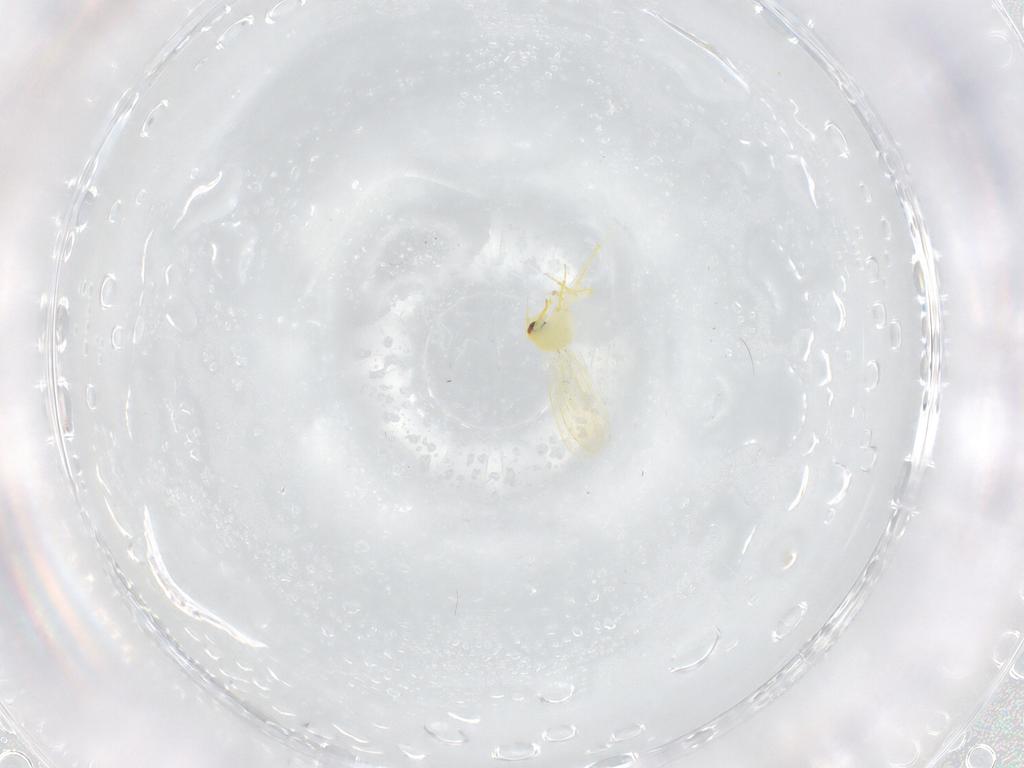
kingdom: Animalia
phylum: Arthropoda
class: Insecta
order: Hemiptera
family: Aleyrodidae
